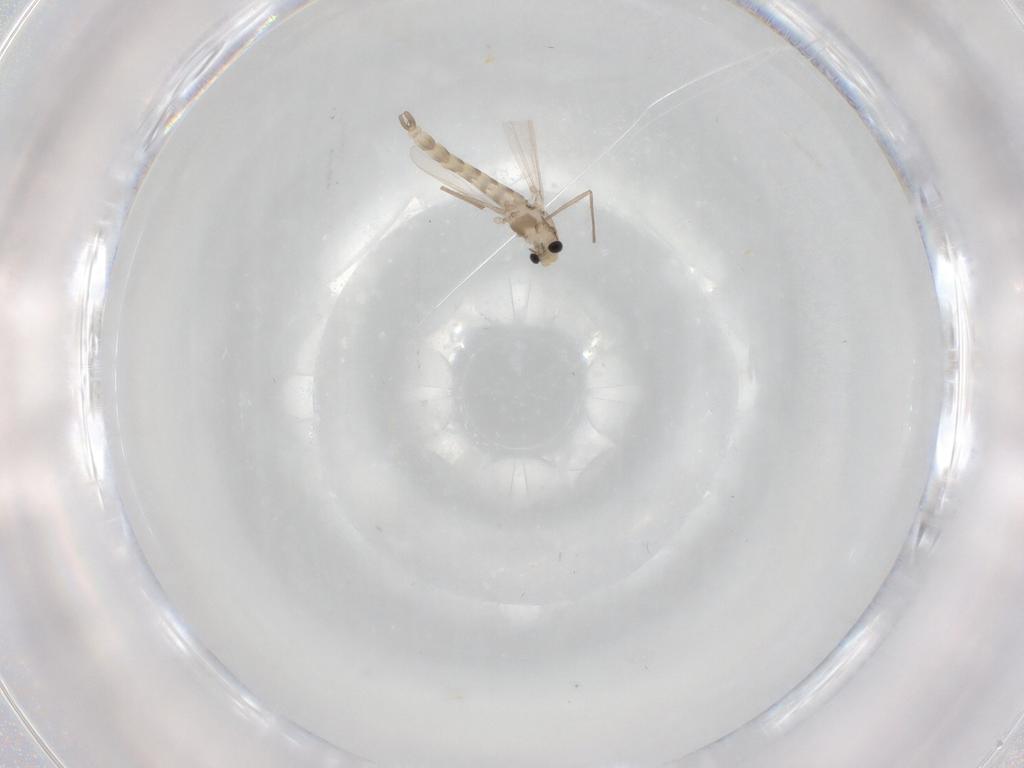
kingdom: Animalia
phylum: Arthropoda
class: Insecta
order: Diptera
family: Chironomidae
